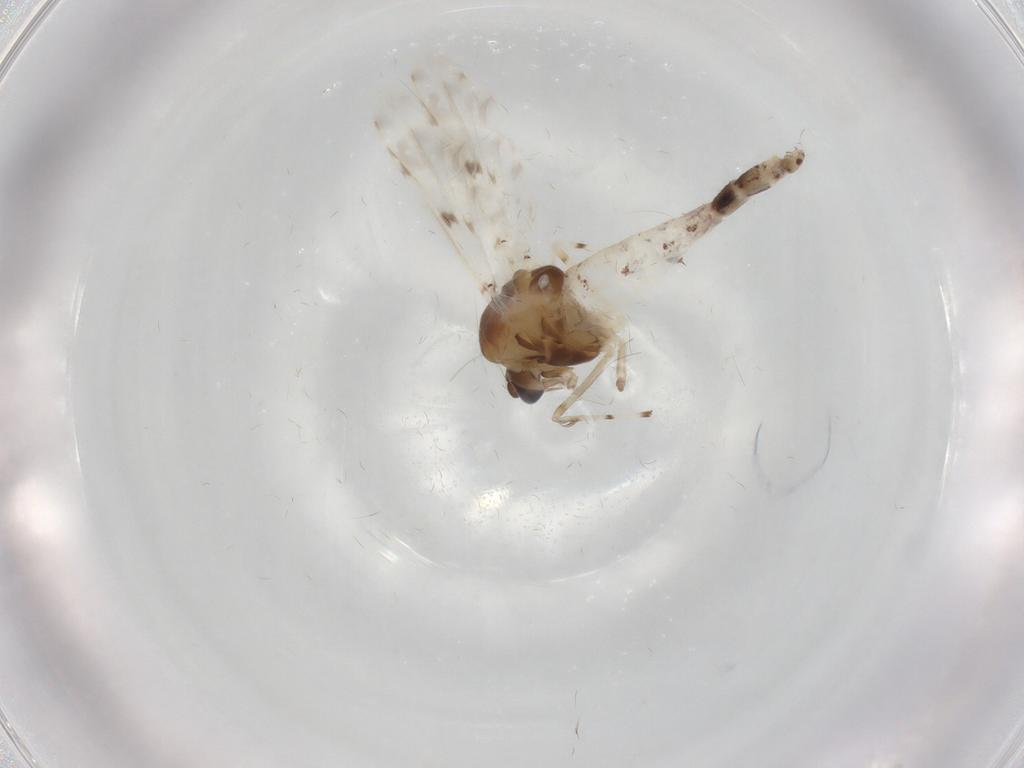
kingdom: Animalia
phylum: Arthropoda
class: Insecta
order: Diptera
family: Chironomidae
